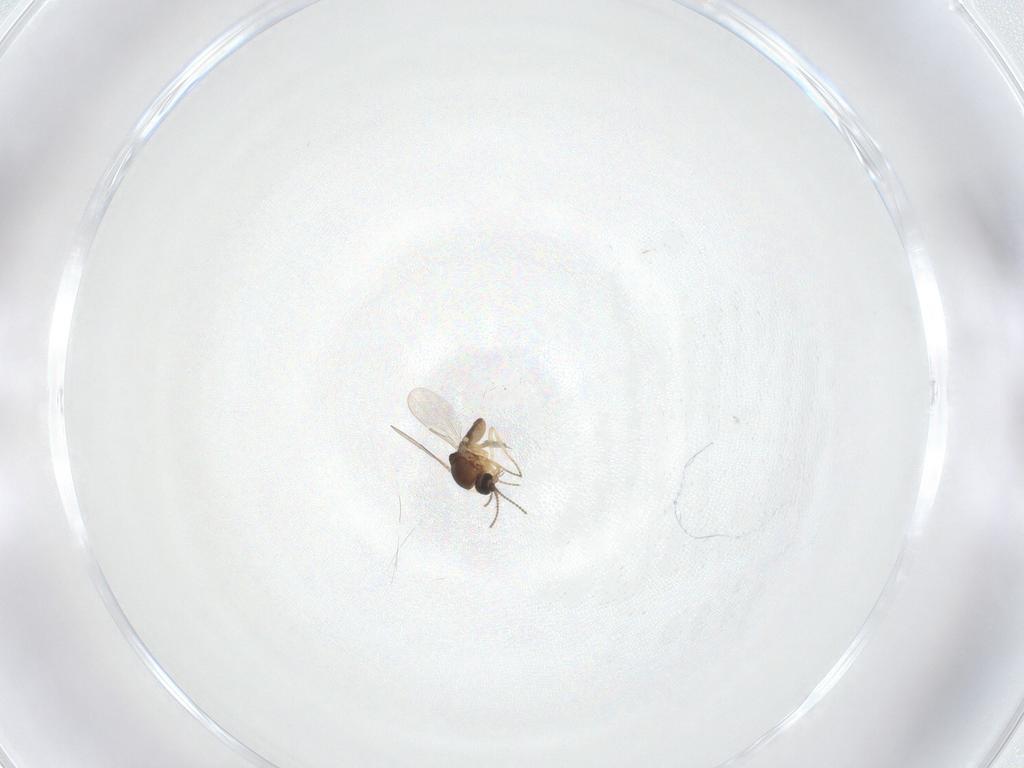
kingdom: Animalia
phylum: Arthropoda
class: Insecta
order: Diptera
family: Ceratopogonidae
